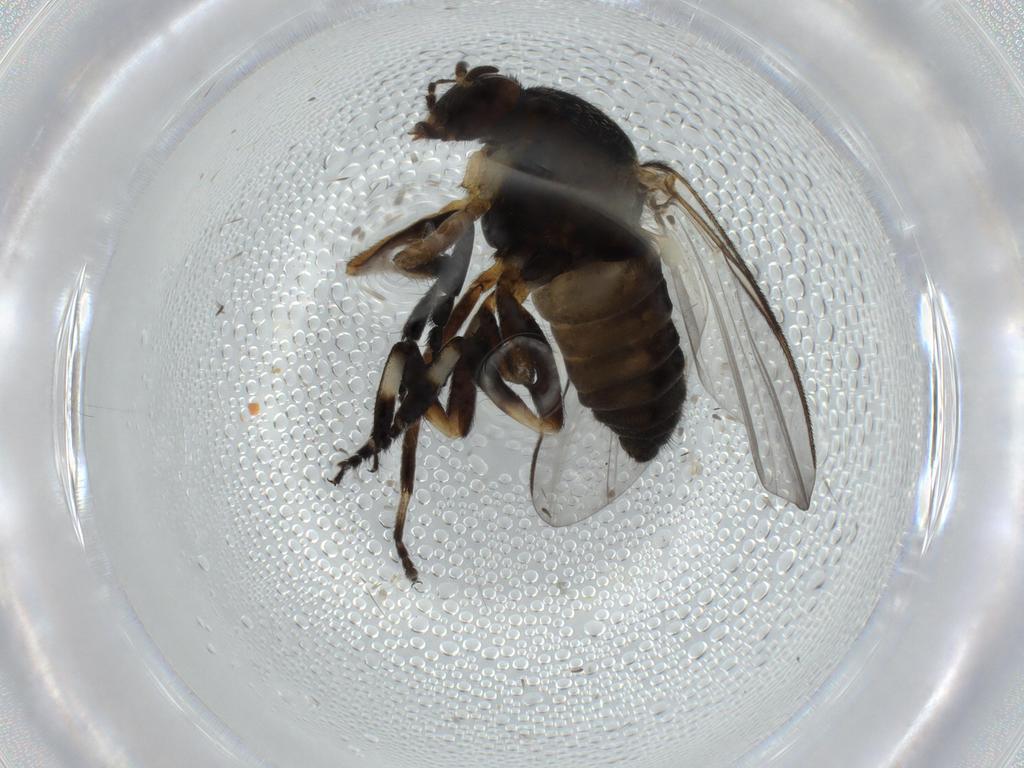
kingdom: Animalia
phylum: Arthropoda
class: Insecta
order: Diptera
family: Phoridae
